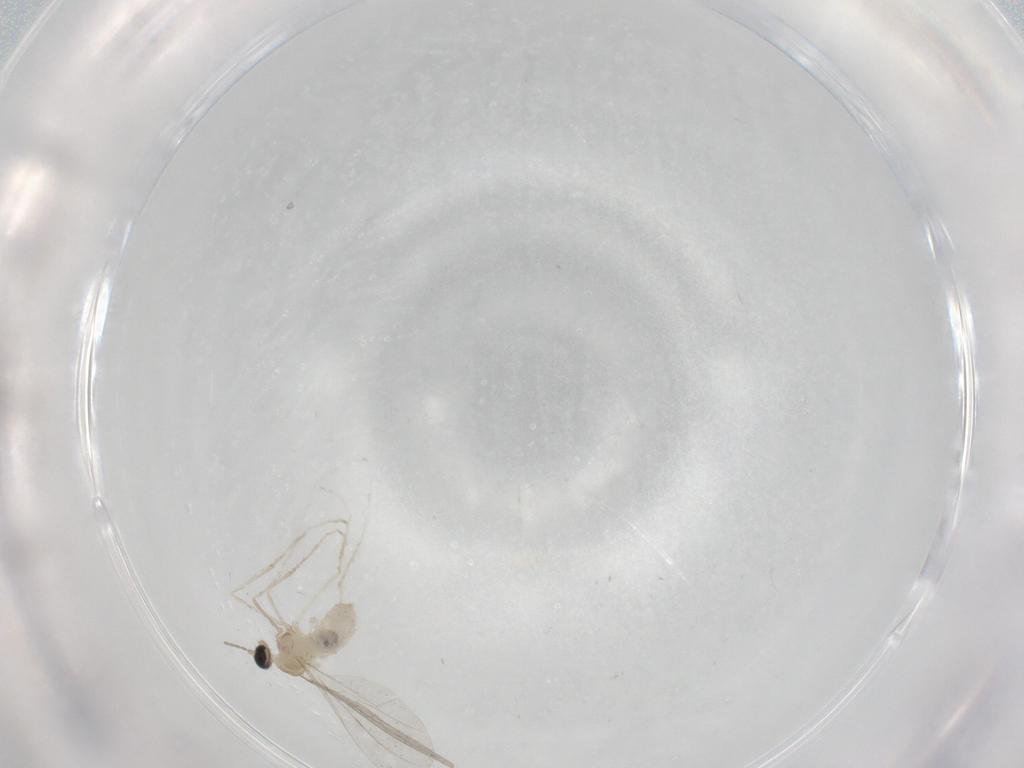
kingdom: Animalia
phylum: Arthropoda
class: Insecta
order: Diptera
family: Cecidomyiidae
